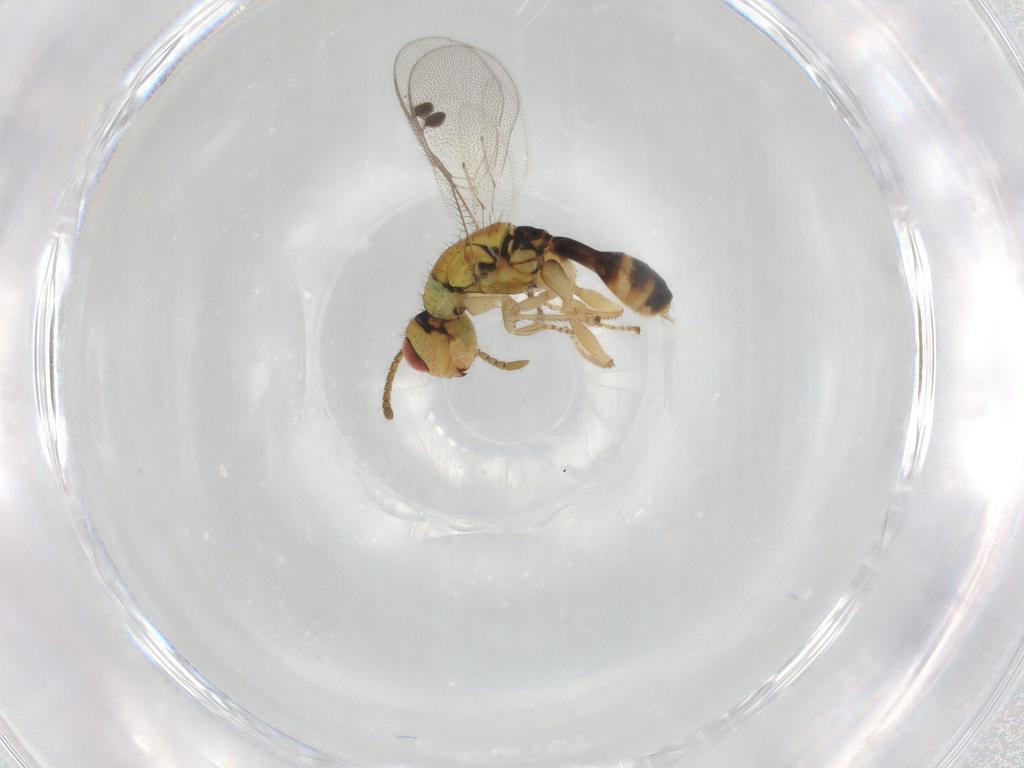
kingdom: Animalia
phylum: Arthropoda
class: Insecta
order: Hymenoptera
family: Megastigmidae
